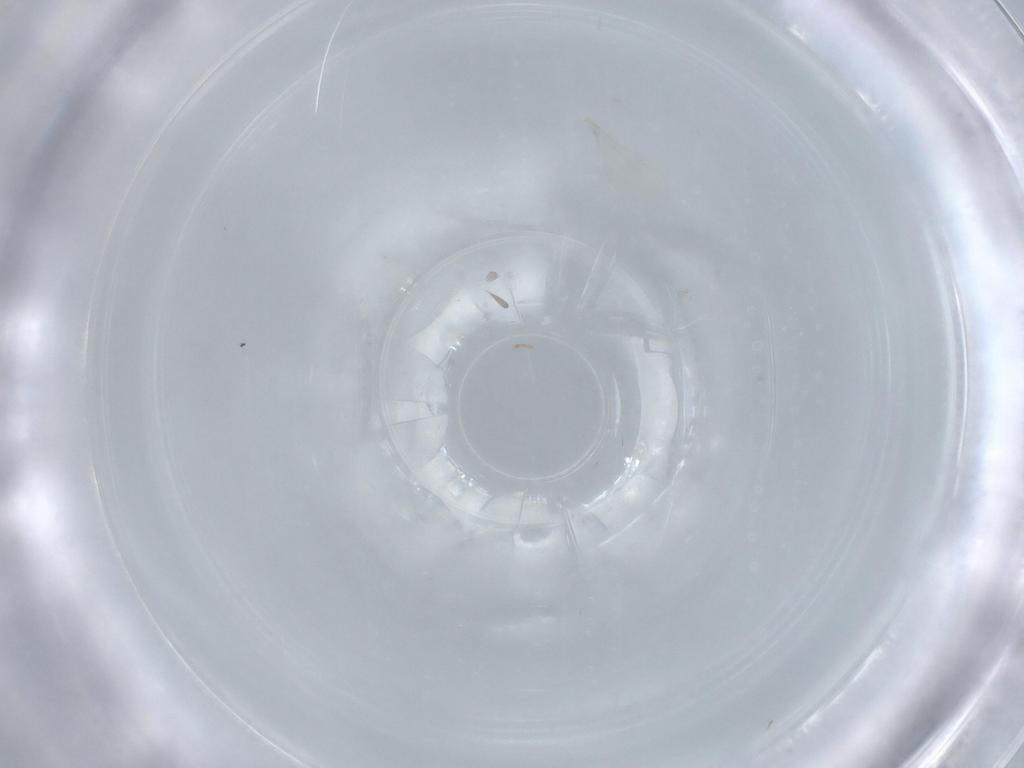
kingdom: Animalia
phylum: Arthropoda
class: Insecta
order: Diptera
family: Cecidomyiidae
